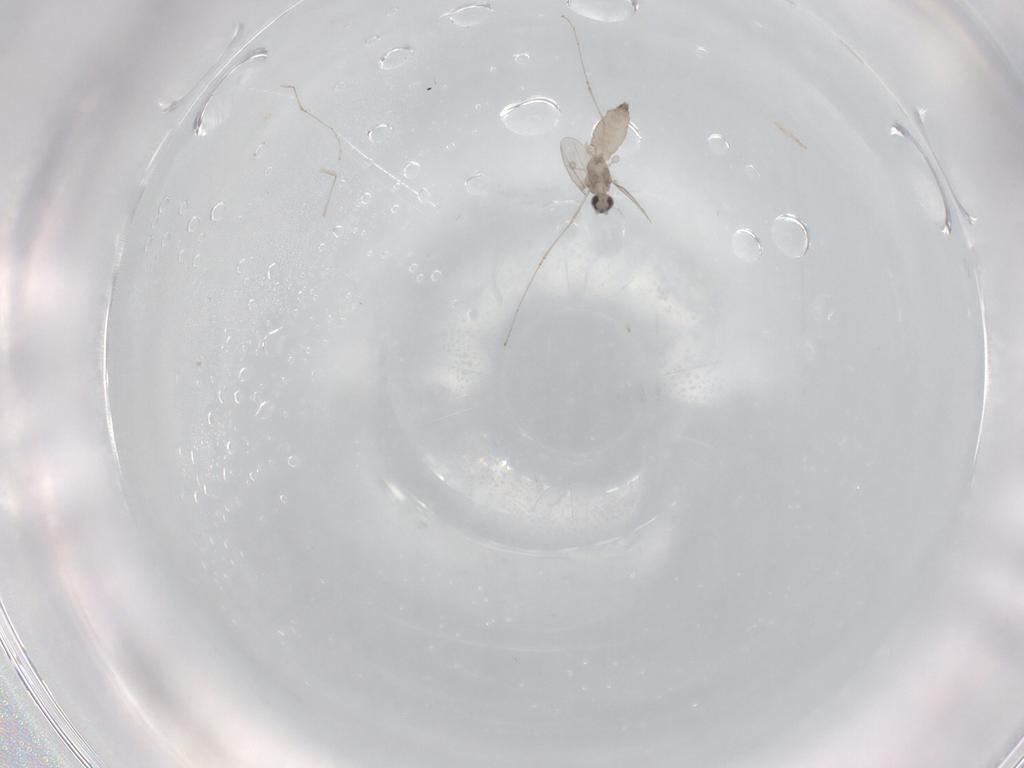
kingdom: Animalia
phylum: Arthropoda
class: Insecta
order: Diptera
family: Cecidomyiidae
